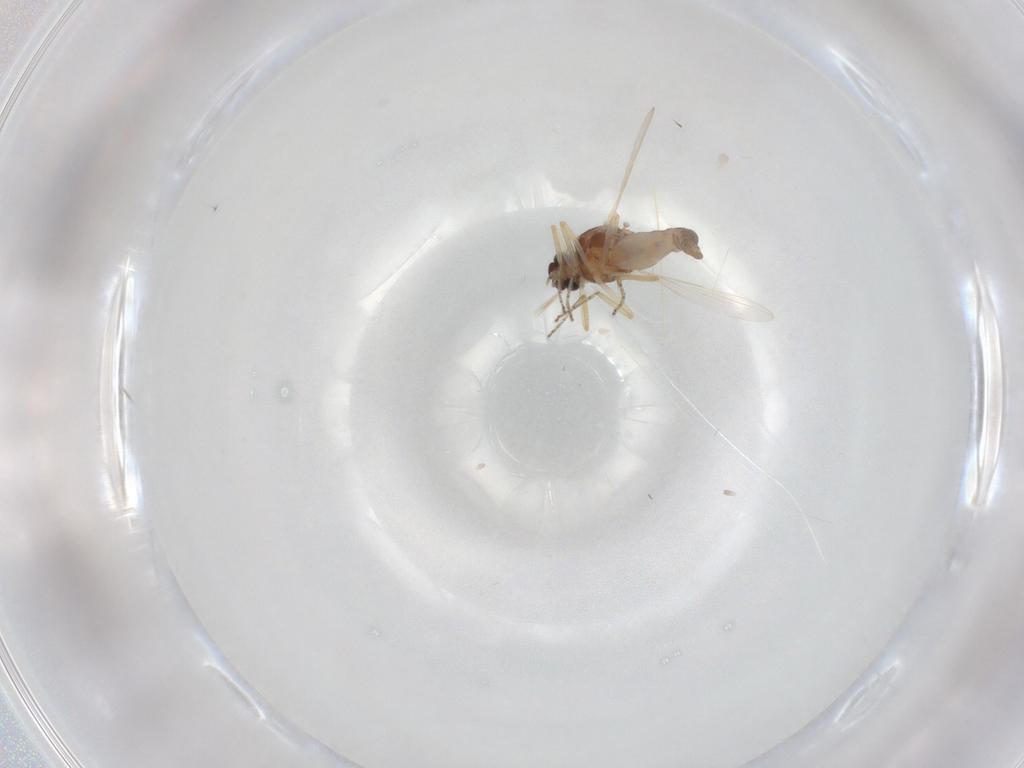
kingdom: Animalia
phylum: Arthropoda
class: Insecta
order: Diptera
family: Ceratopogonidae
